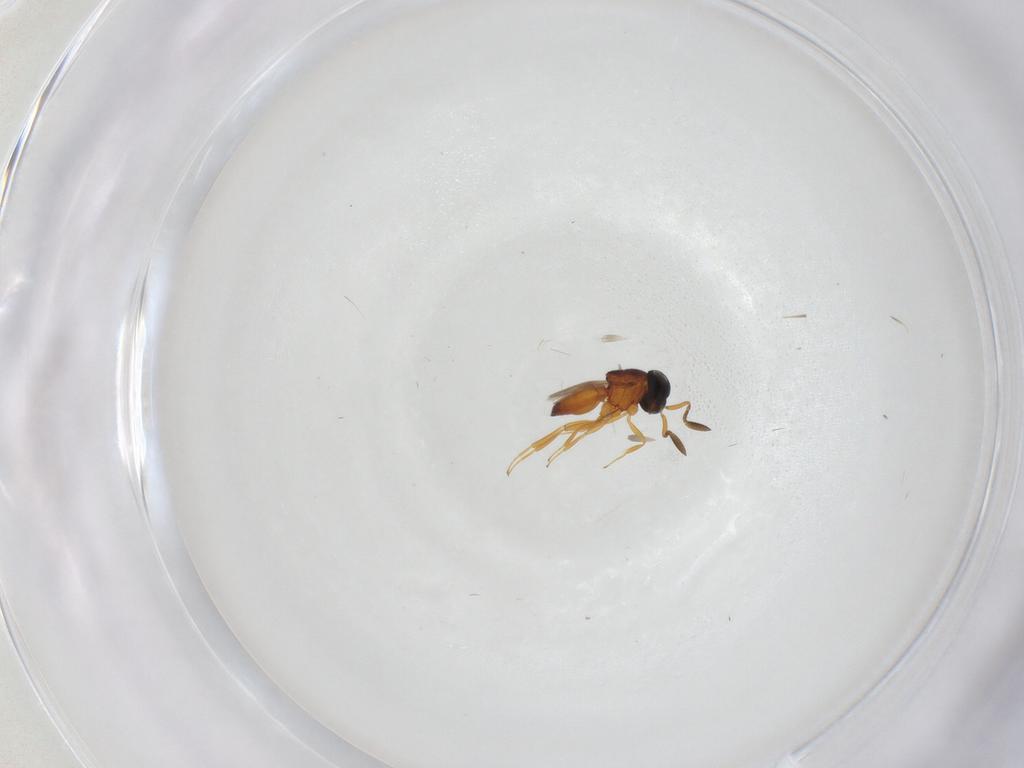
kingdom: Animalia
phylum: Arthropoda
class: Insecta
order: Hymenoptera
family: Scelionidae
